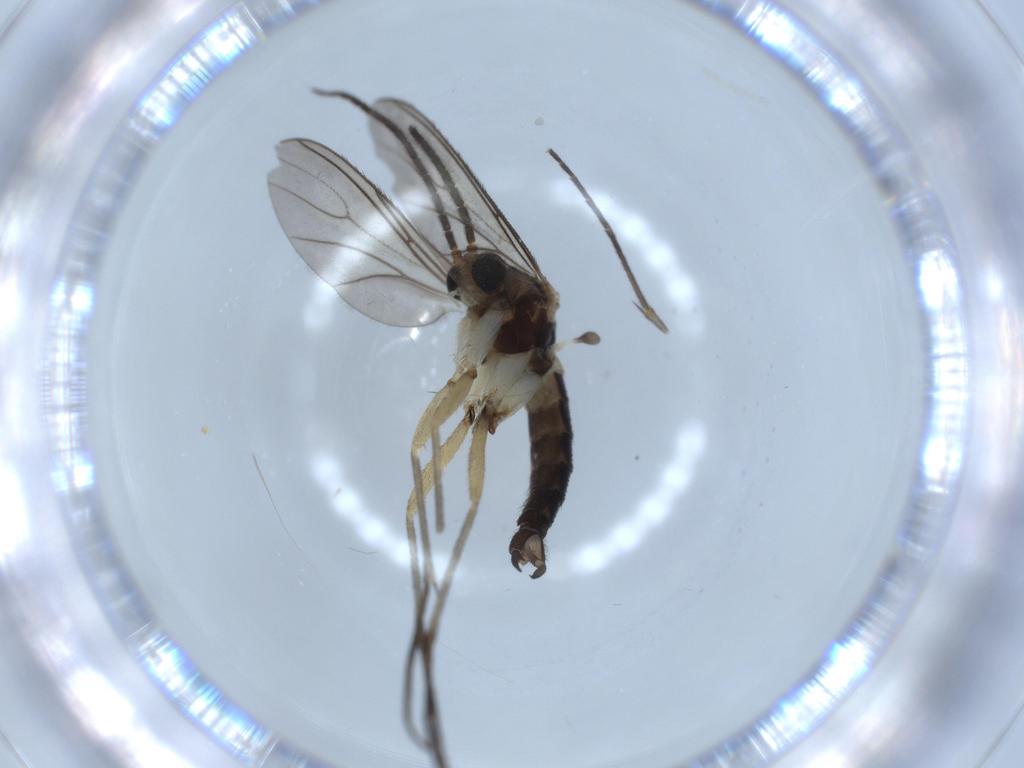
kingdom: Animalia
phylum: Arthropoda
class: Insecta
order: Diptera
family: Sciaridae
